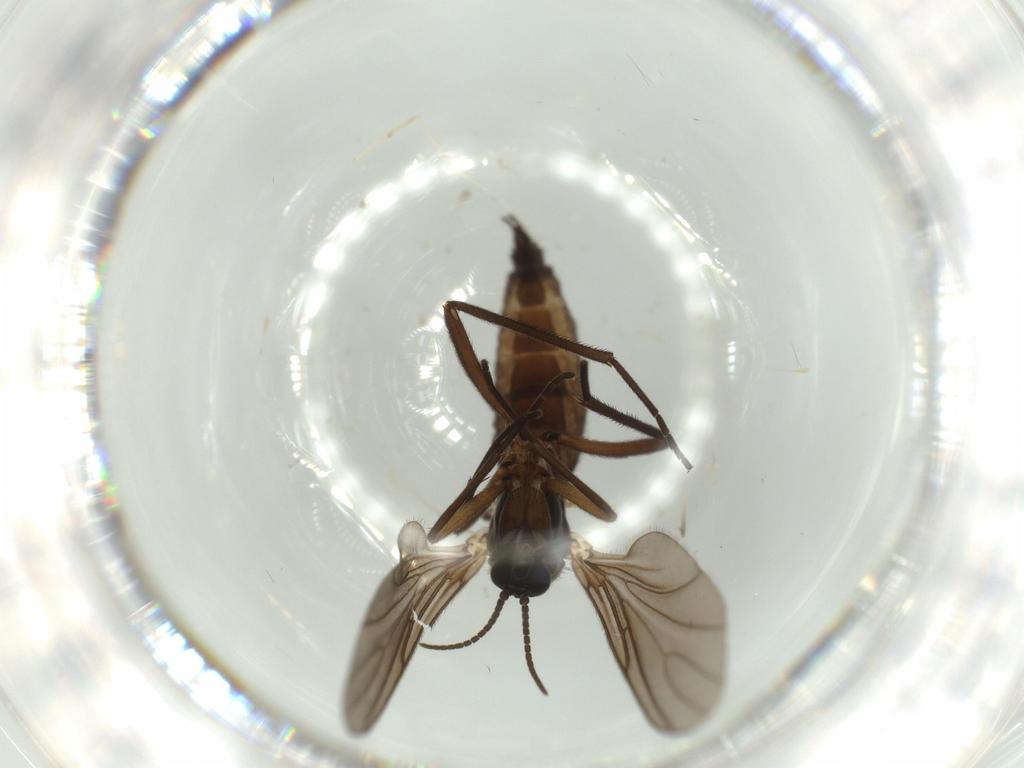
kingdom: Animalia
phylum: Arthropoda
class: Insecta
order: Diptera
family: Sciaridae
